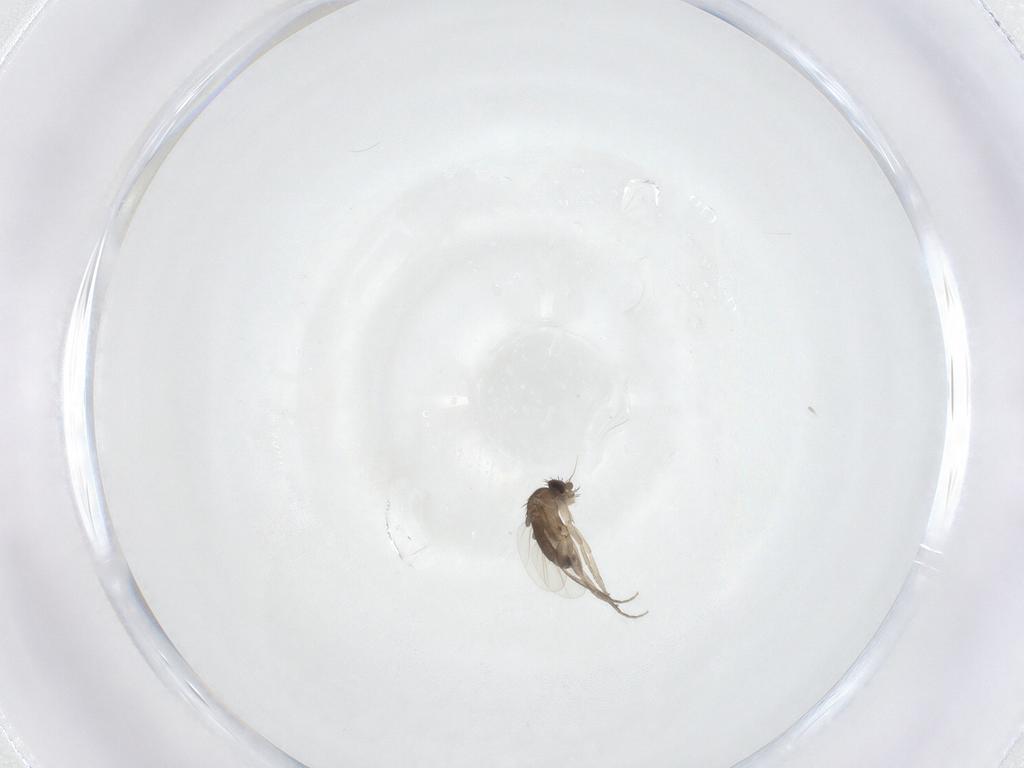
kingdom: Animalia
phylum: Arthropoda
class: Insecta
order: Diptera
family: Phoridae
